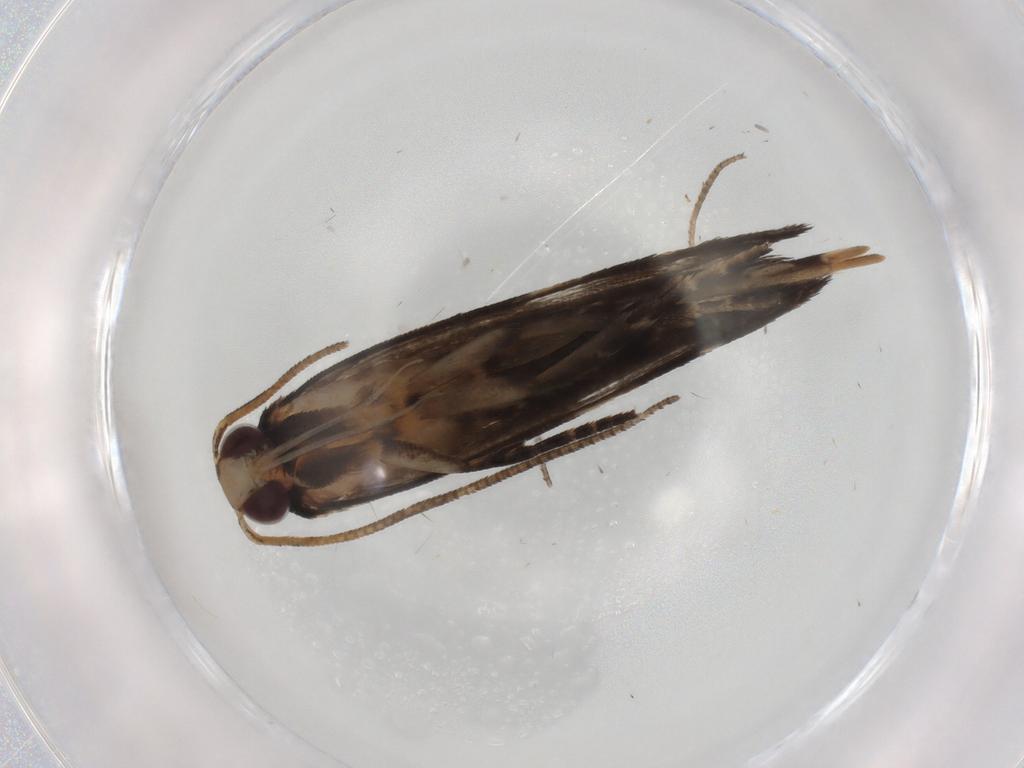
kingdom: Animalia
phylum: Arthropoda
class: Insecta
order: Lepidoptera
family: Gelechiidae
